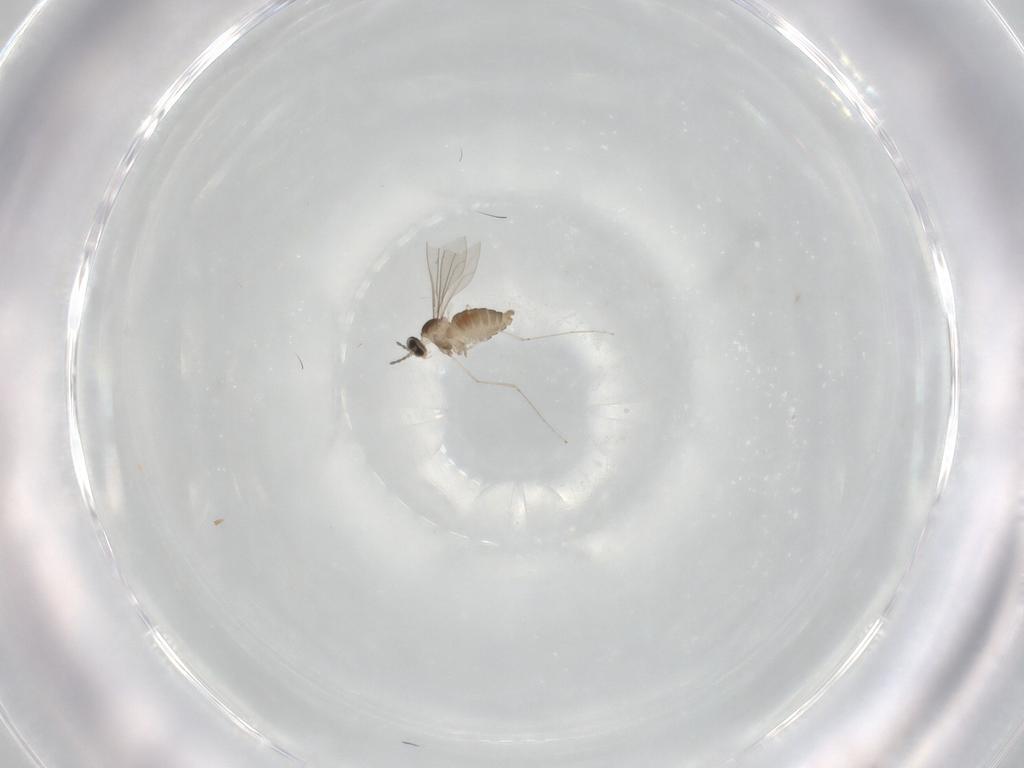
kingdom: Animalia
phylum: Arthropoda
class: Insecta
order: Diptera
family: Cecidomyiidae
